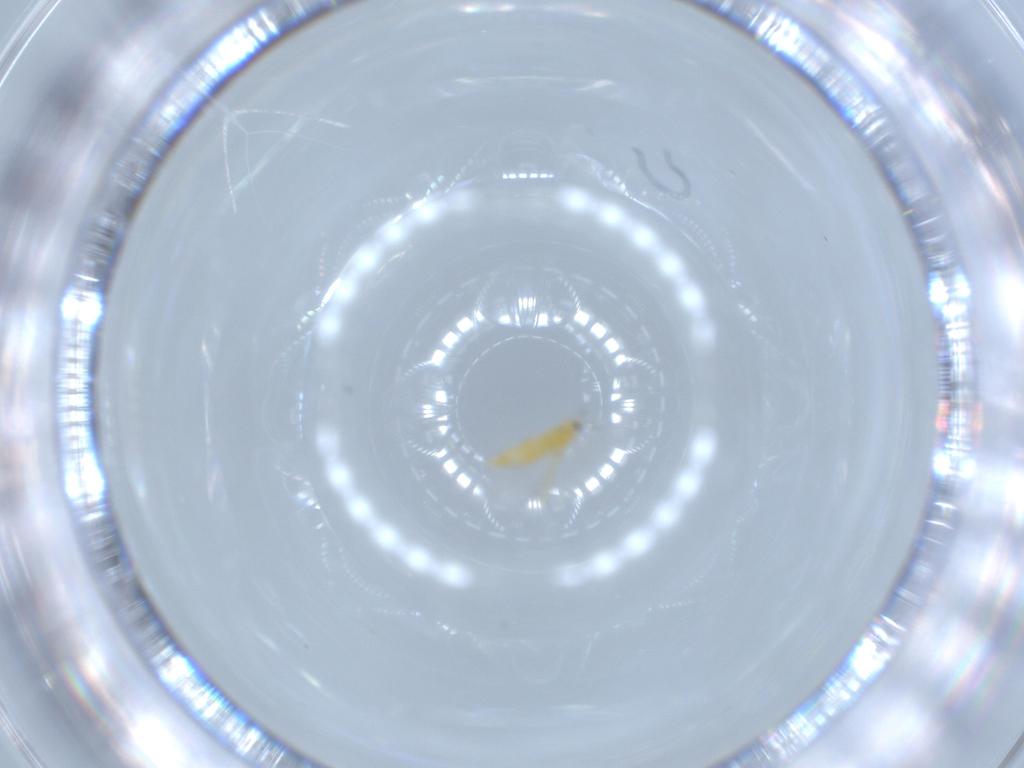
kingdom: Animalia
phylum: Arthropoda
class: Insecta
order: Thysanoptera
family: Thripidae
